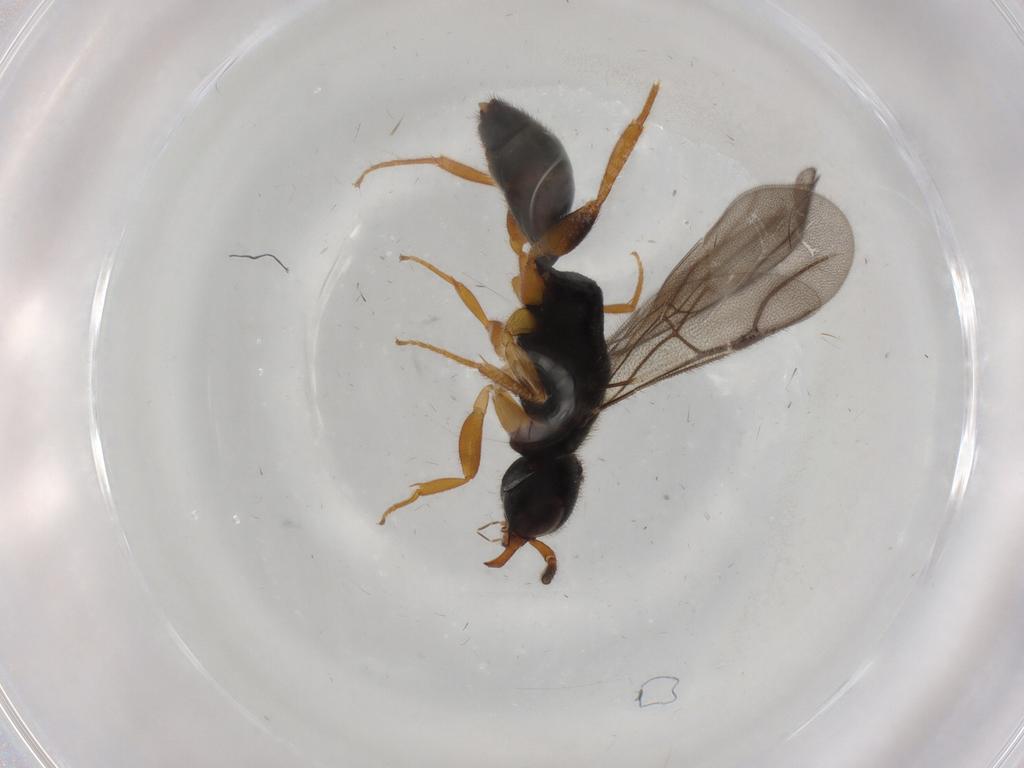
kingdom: Animalia
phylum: Arthropoda
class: Insecta
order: Hymenoptera
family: Bethylidae
